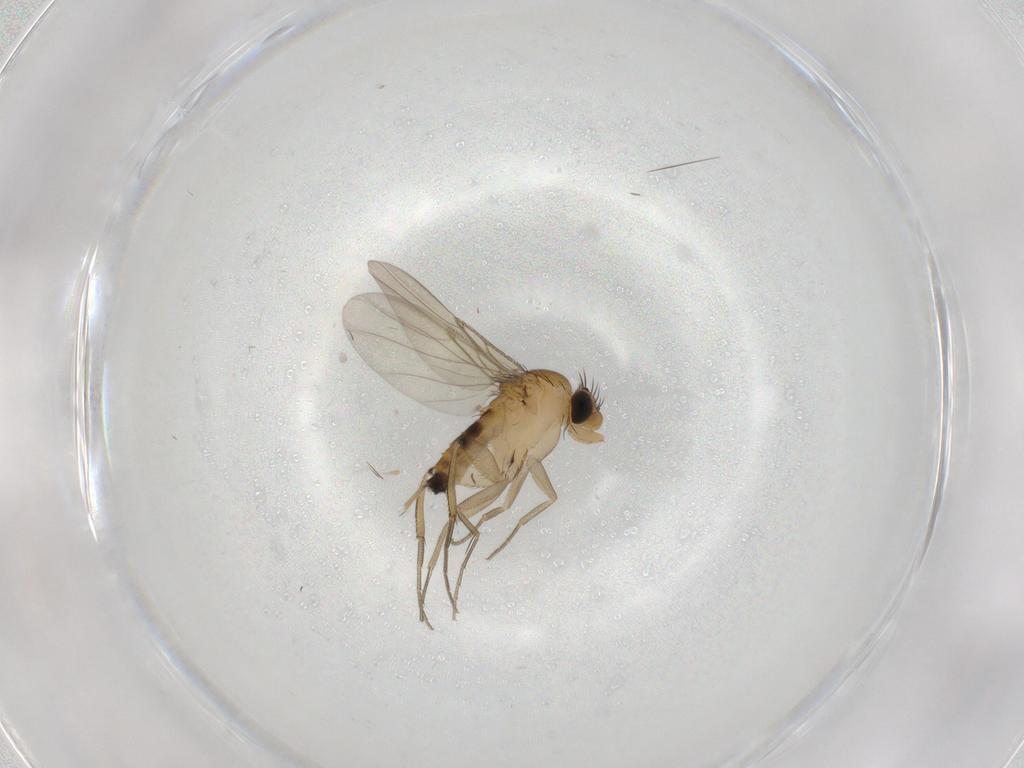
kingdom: Animalia
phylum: Arthropoda
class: Insecta
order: Diptera
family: Phoridae
